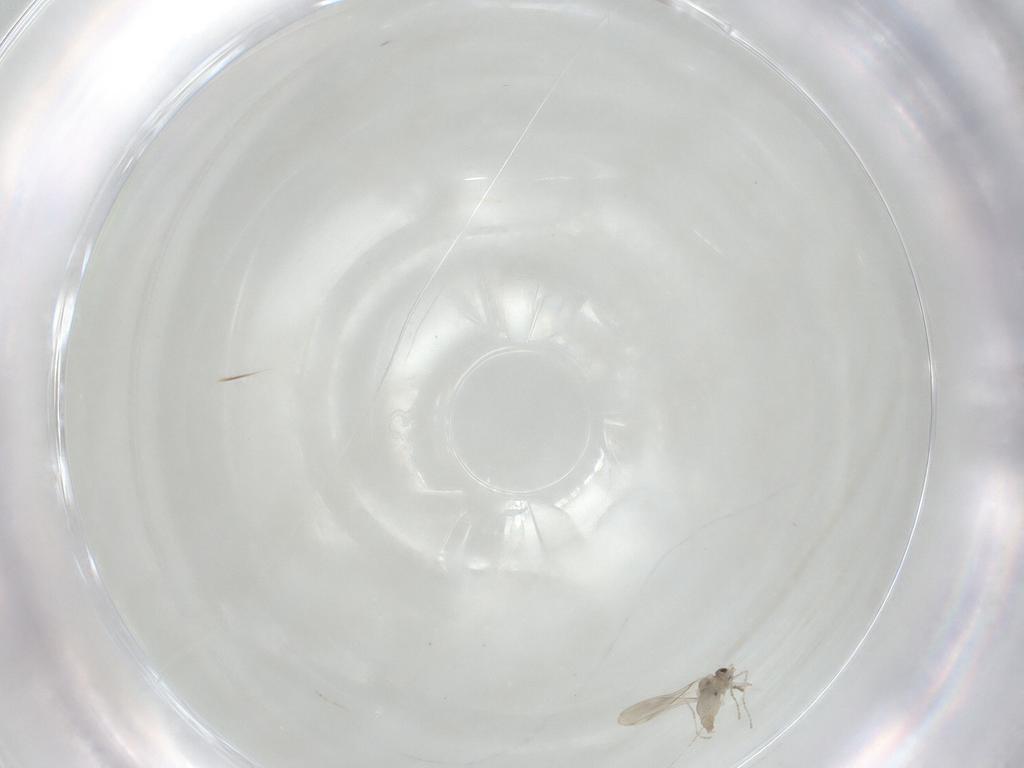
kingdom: Animalia
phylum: Arthropoda
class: Insecta
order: Diptera
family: Cecidomyiidae
